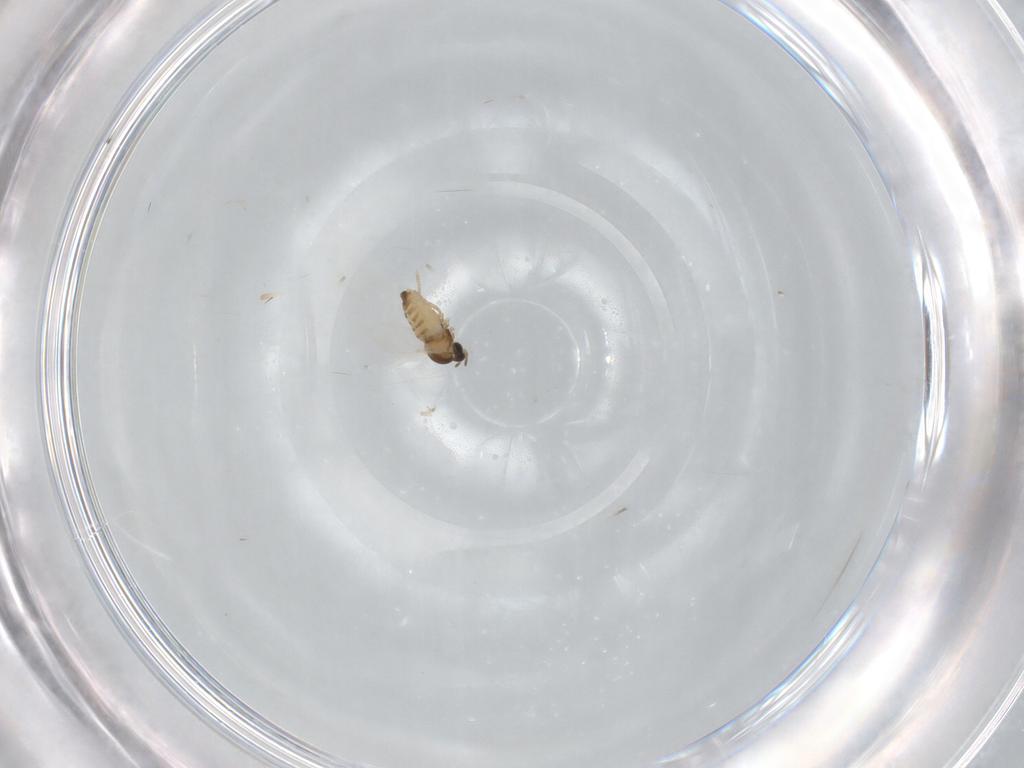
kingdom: Animalia
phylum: Arthropoda
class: Insecta
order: Diptera
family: Cecidomyiidae
